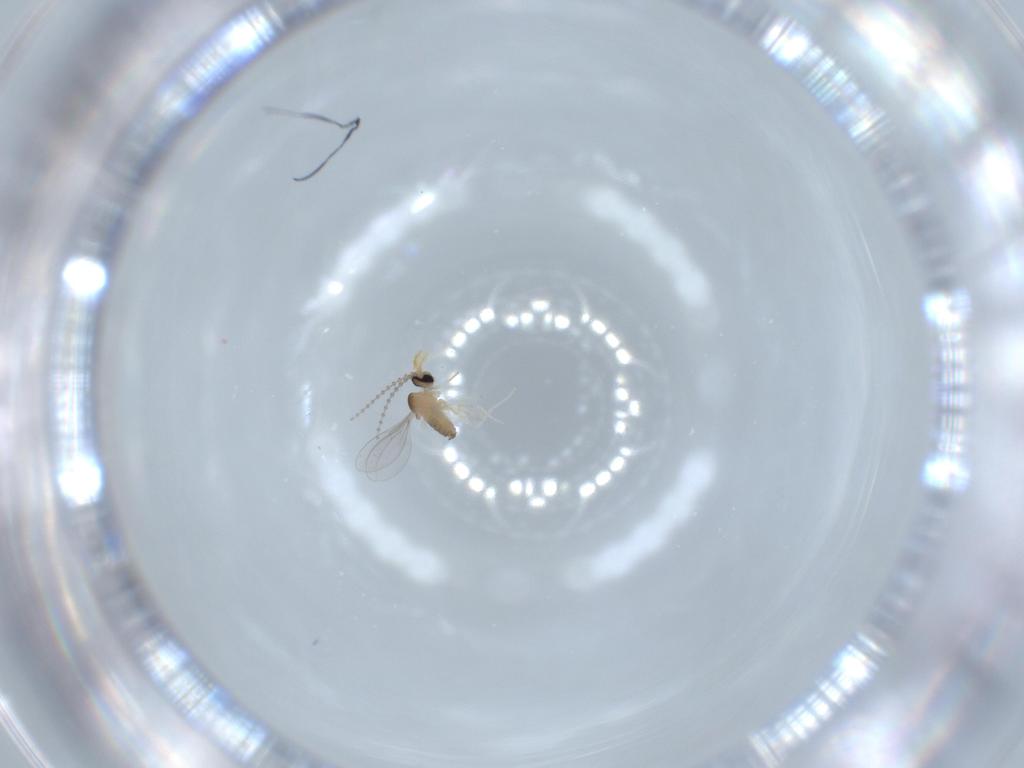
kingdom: Animalia
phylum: Arthropoda
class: Insecta
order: Diptera
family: Cecidomyiidae
